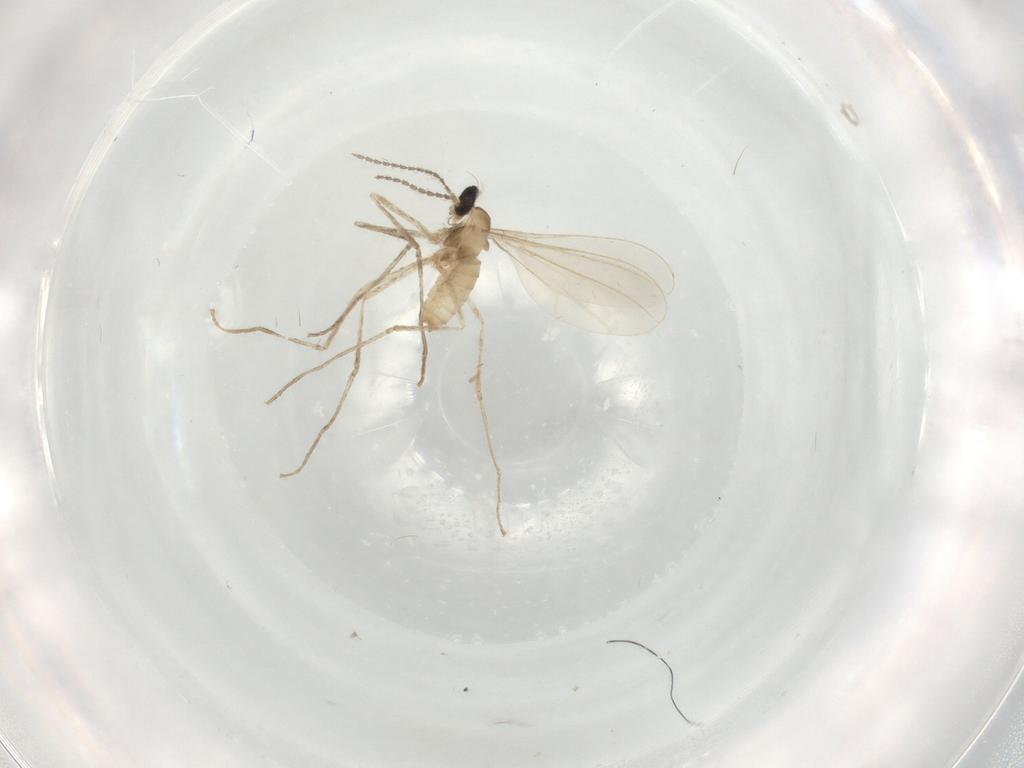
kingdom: Animalia
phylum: Arthropoda
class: Insecta
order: Diptera
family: Cecidomyiidae
